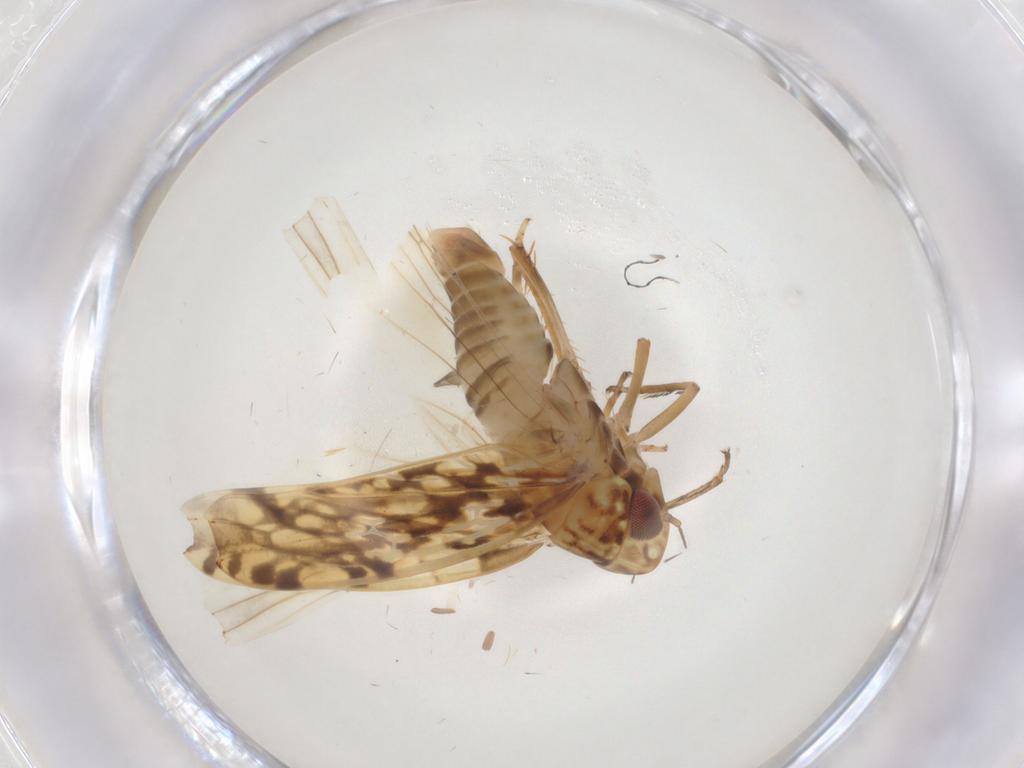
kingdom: Animalia
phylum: Arthropoda
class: Insecta
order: Hemiptera
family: Cicadellidae
